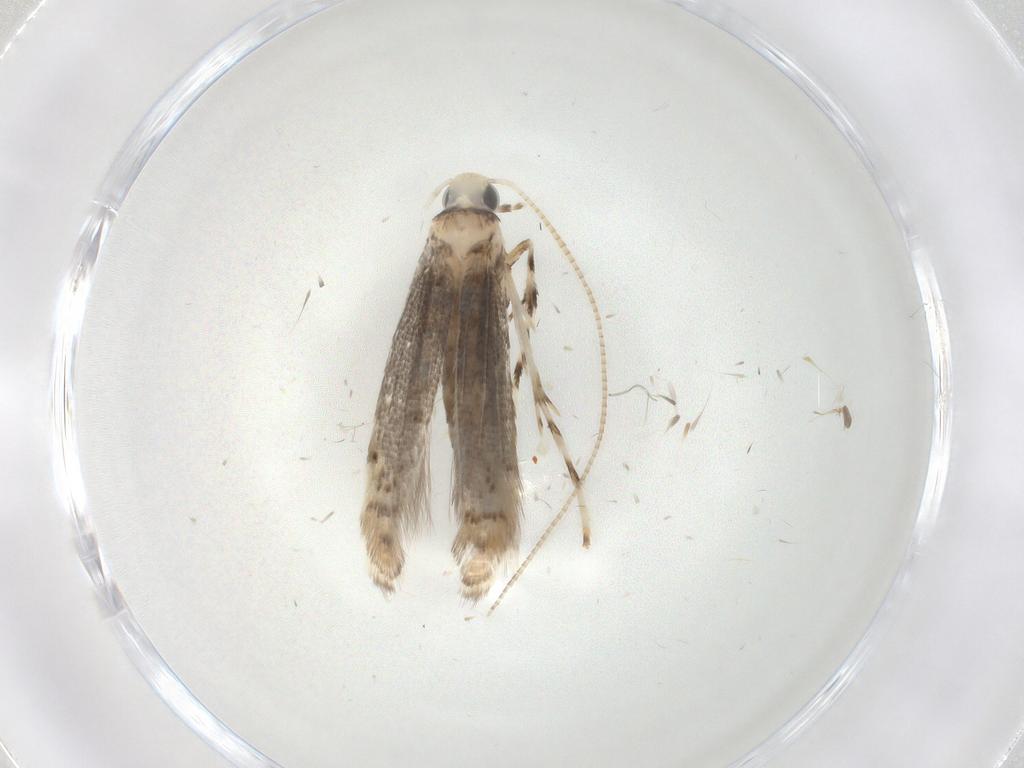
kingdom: Animalia
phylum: Arthropoda
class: Insecta
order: Lepidoptera
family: Gracillariidae
